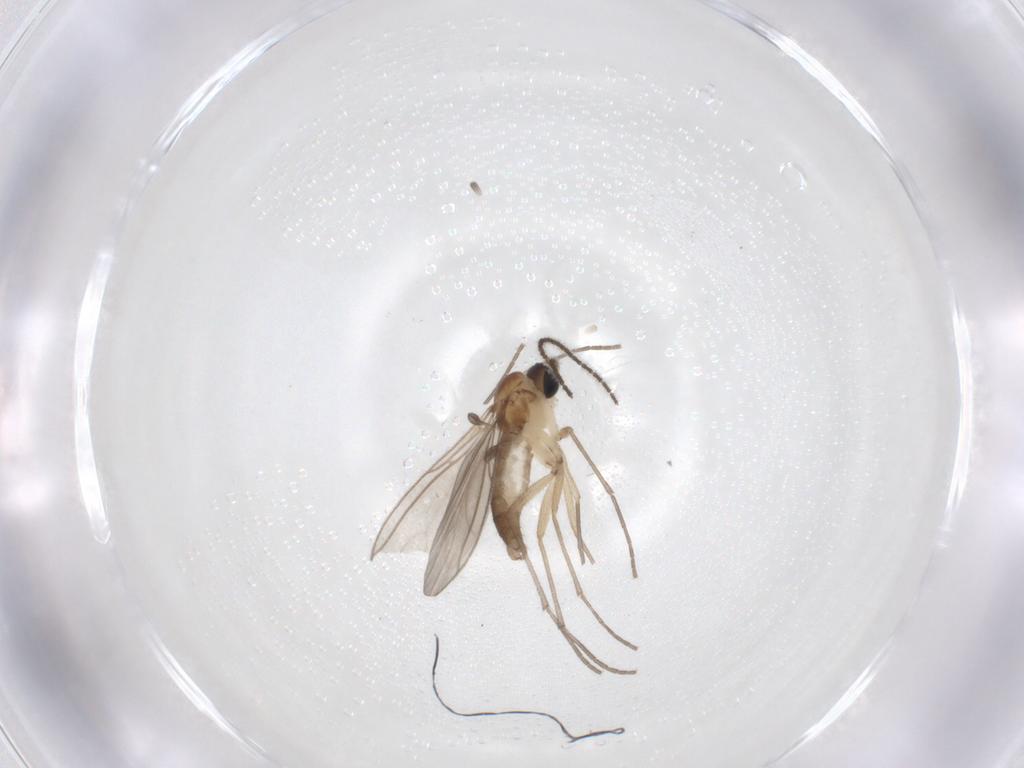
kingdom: Animalia
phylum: Arthropoda
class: Insecta
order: Diptera
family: Sciaridae
